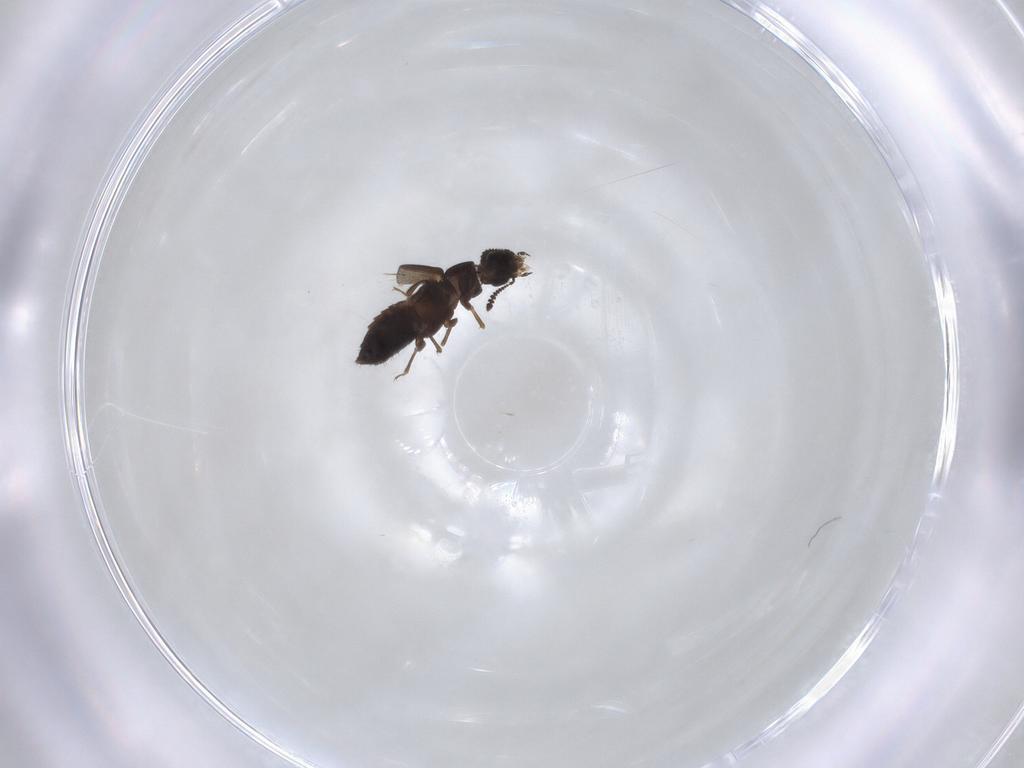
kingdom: Animalia
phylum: Arthropoda
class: Insecta
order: Coleoptera
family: Staphylinidae
